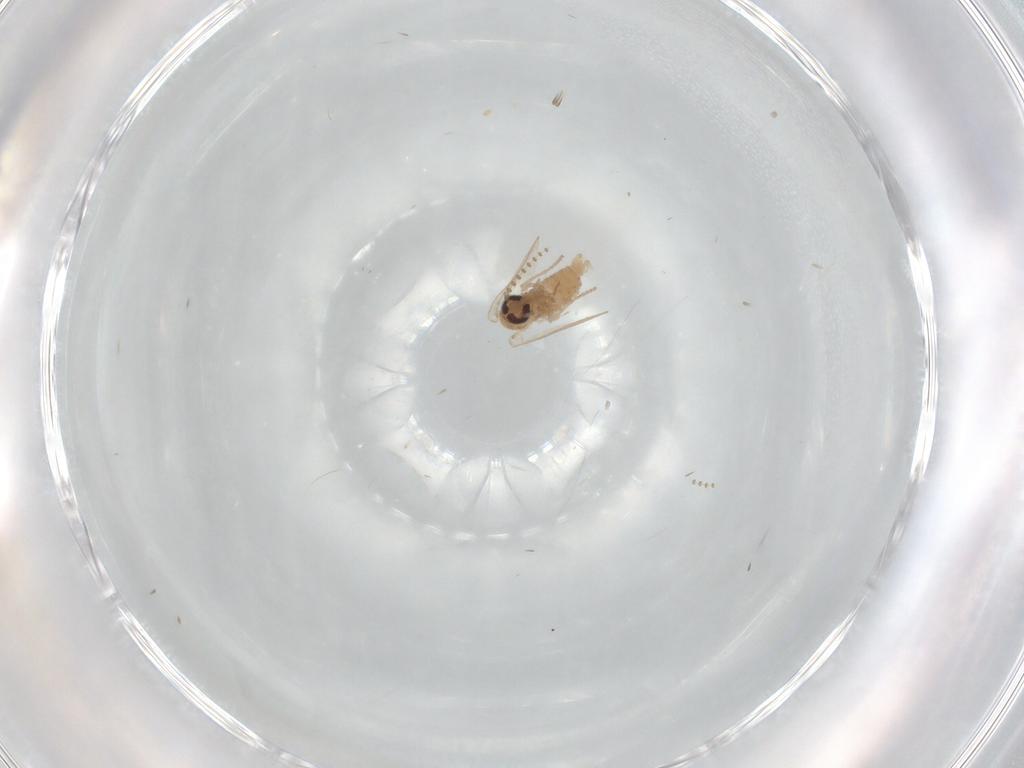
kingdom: Animalia
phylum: Arthropoda
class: Insecta
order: Diptera
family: Psychodidae
